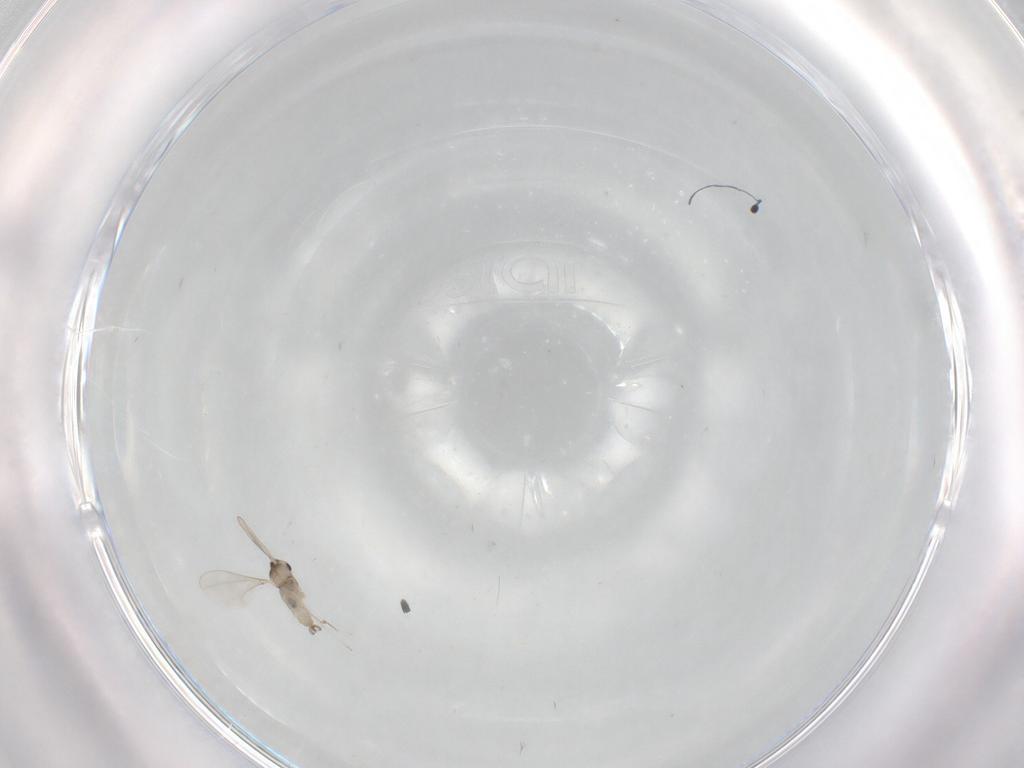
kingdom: Animalia
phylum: Arthropoda
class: Insecta
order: Diptera
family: Cecidomyiidae
